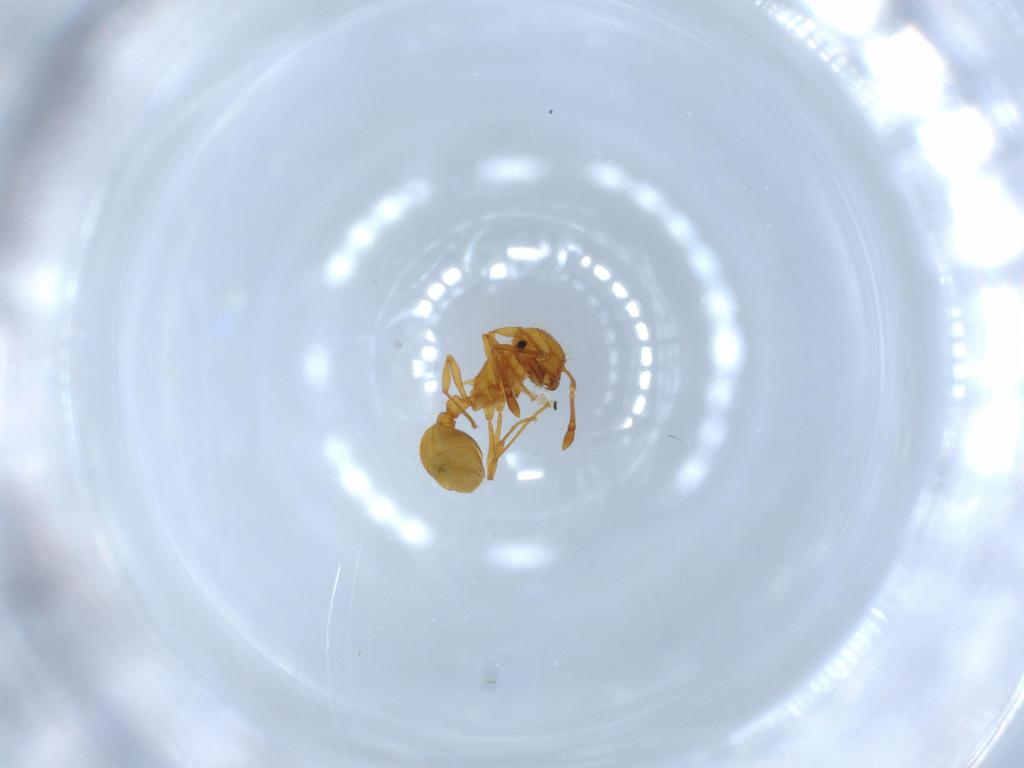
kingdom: Animalia
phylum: Arthropoda
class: Insecta
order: Hymenoptera
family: Formicidae
